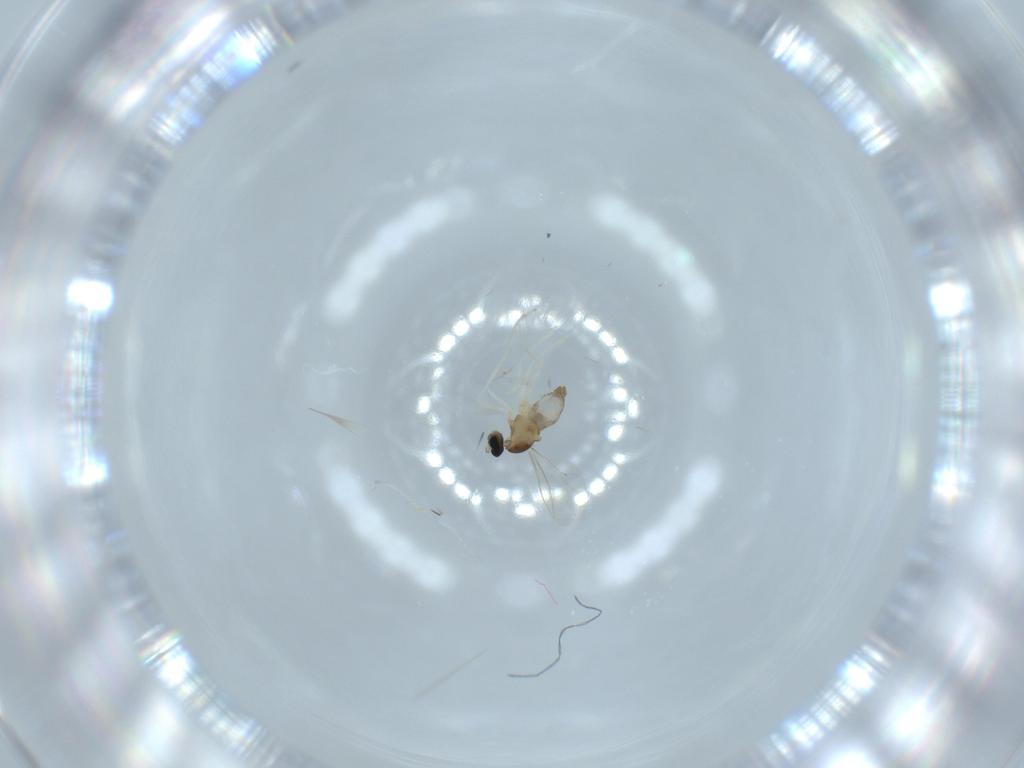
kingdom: Animalia
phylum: Arthropoda
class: Insecta
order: Diptera
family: Cecidomyiidae
